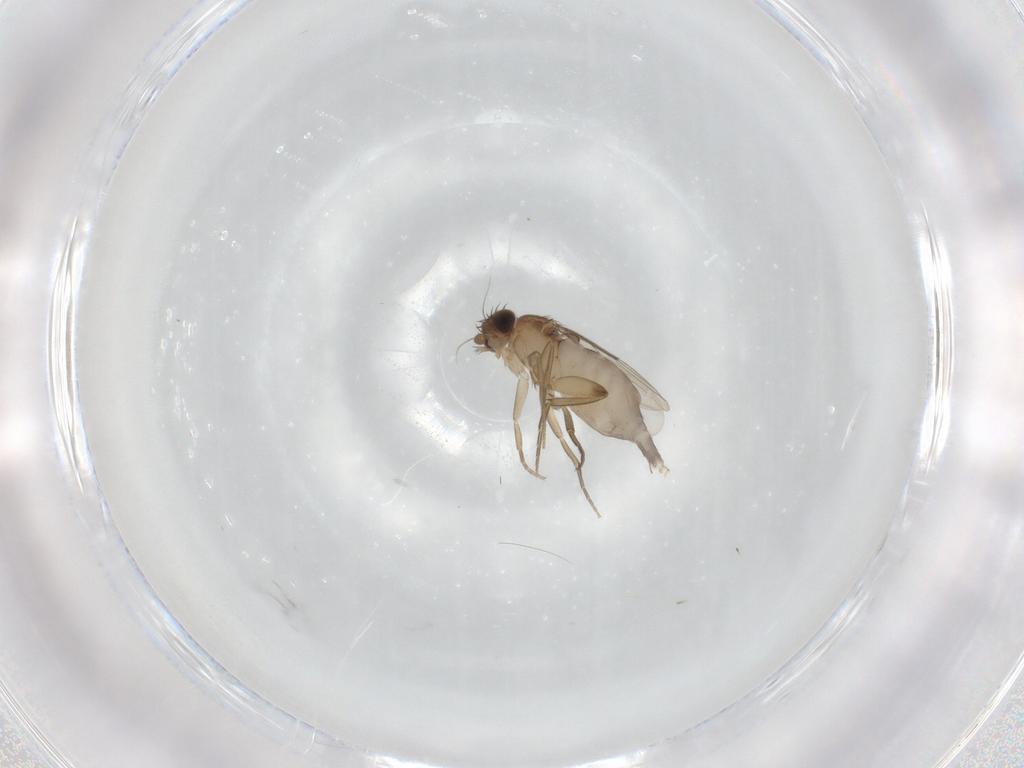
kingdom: Animalia
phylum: Arthropoda
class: Insecta
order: Diptera
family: Phoridae
